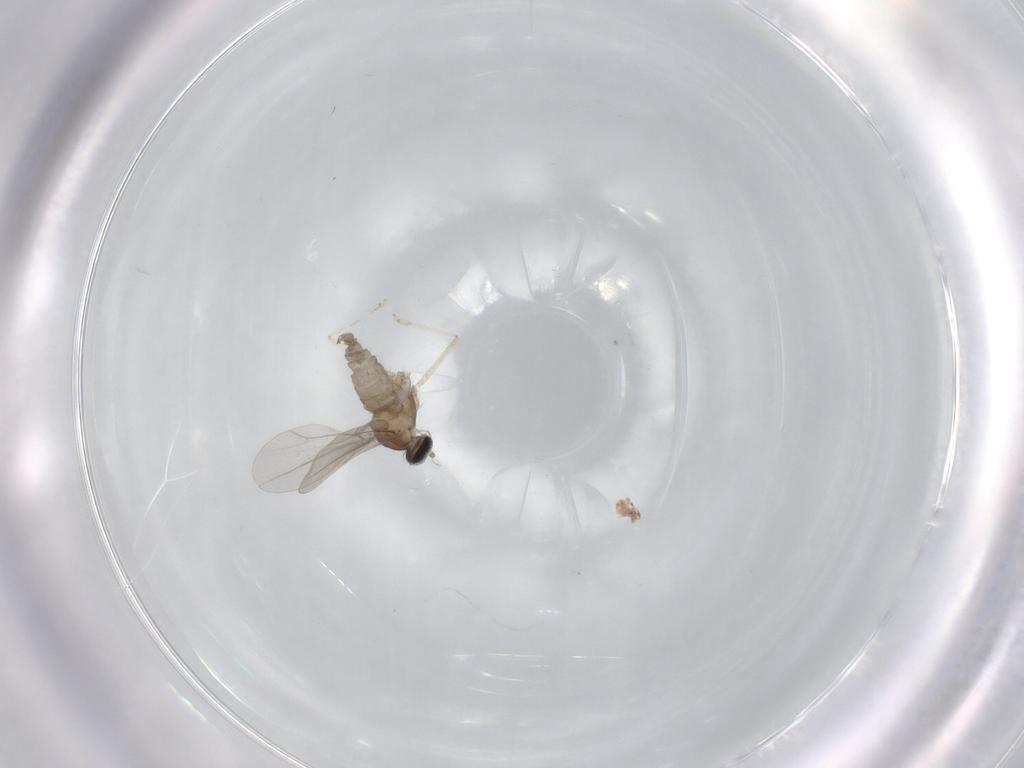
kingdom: Animalia
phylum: Arthropoda
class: Insecta
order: Diptera
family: Cecidomyiidae
